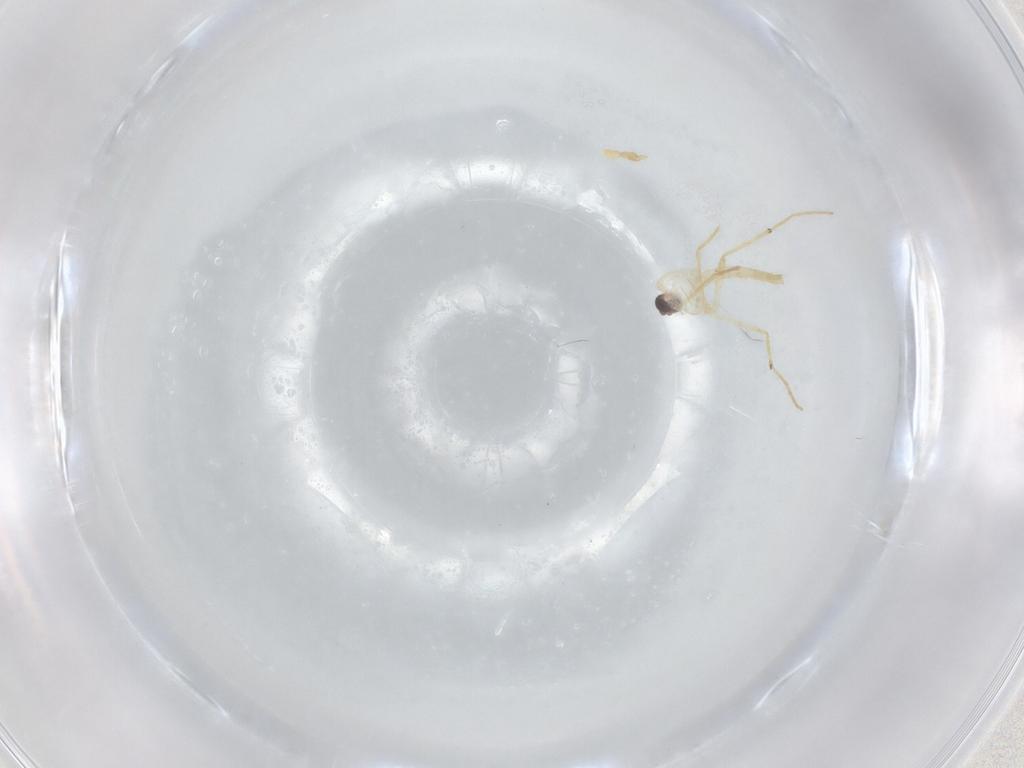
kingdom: Animalia
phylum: Arthropoda
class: Insecta
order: Diptera
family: Chironomidae
